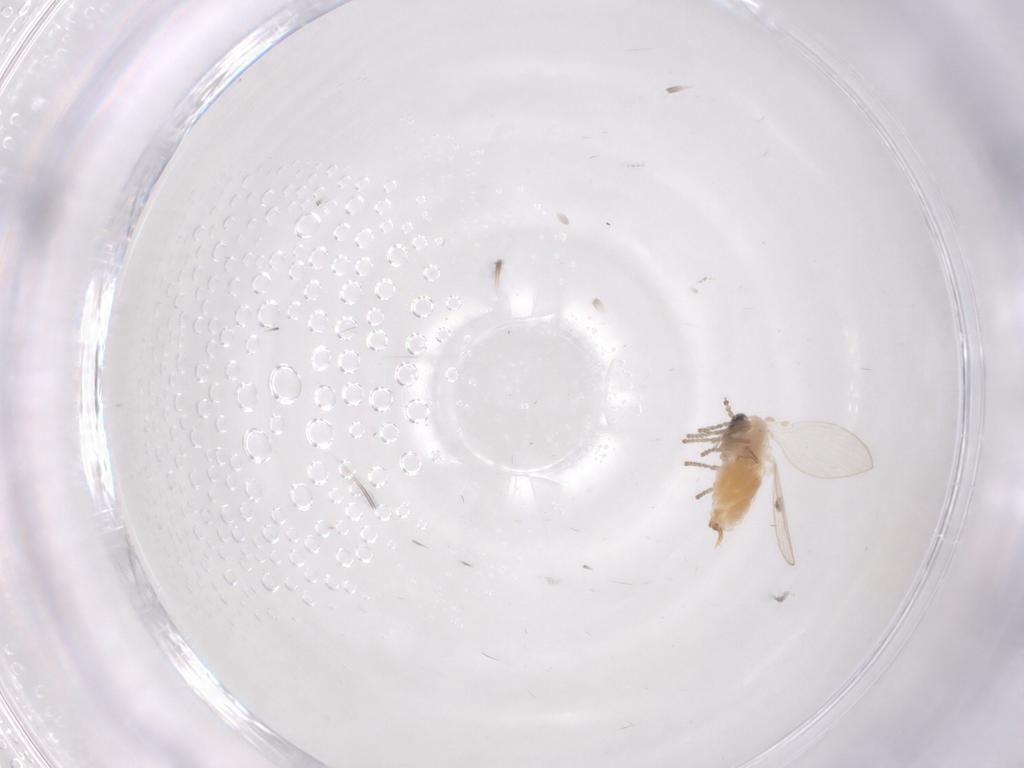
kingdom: Animalia
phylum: Arthropoda
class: Insecta
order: Diptera
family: Psychodidae
